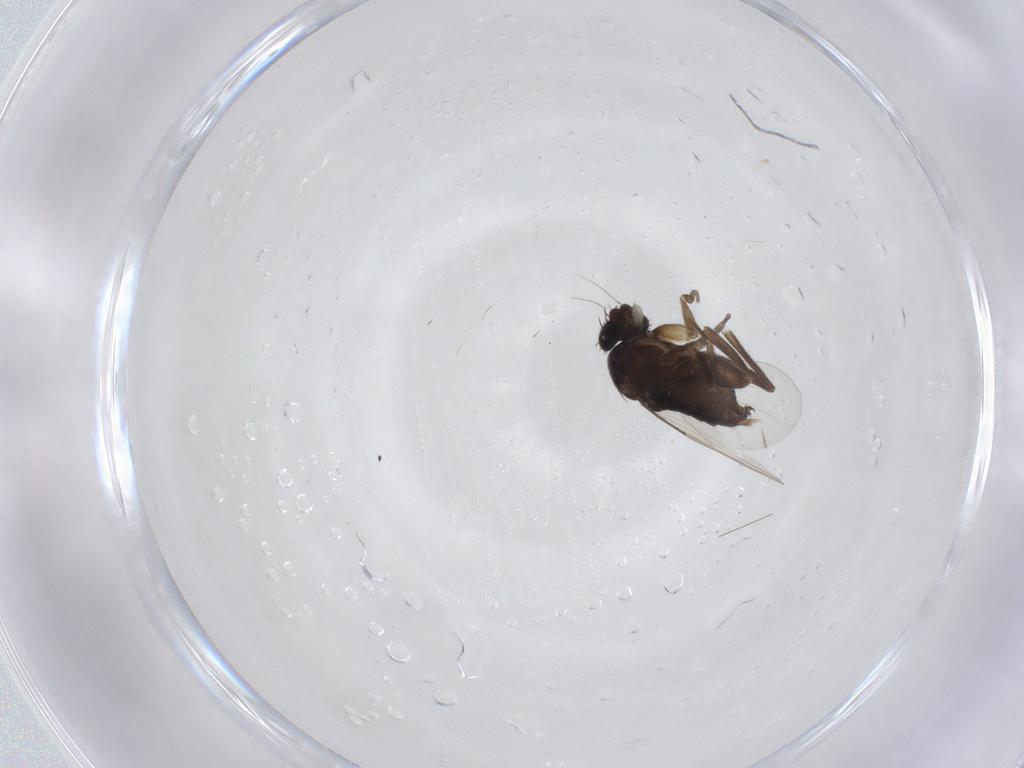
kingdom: Animalia
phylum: Arthropoda
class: Insecta
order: Diptera
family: Phoridae
